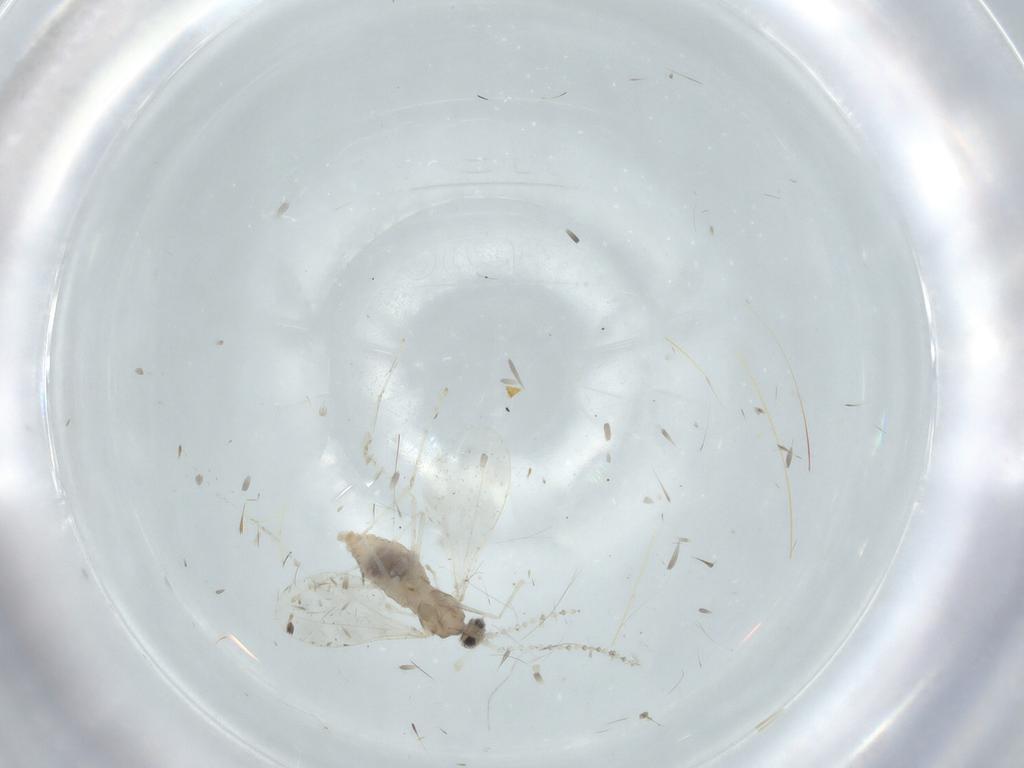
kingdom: Animalia
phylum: Arthropoda
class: Insecta
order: Diptera
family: Cecidomyiidae
